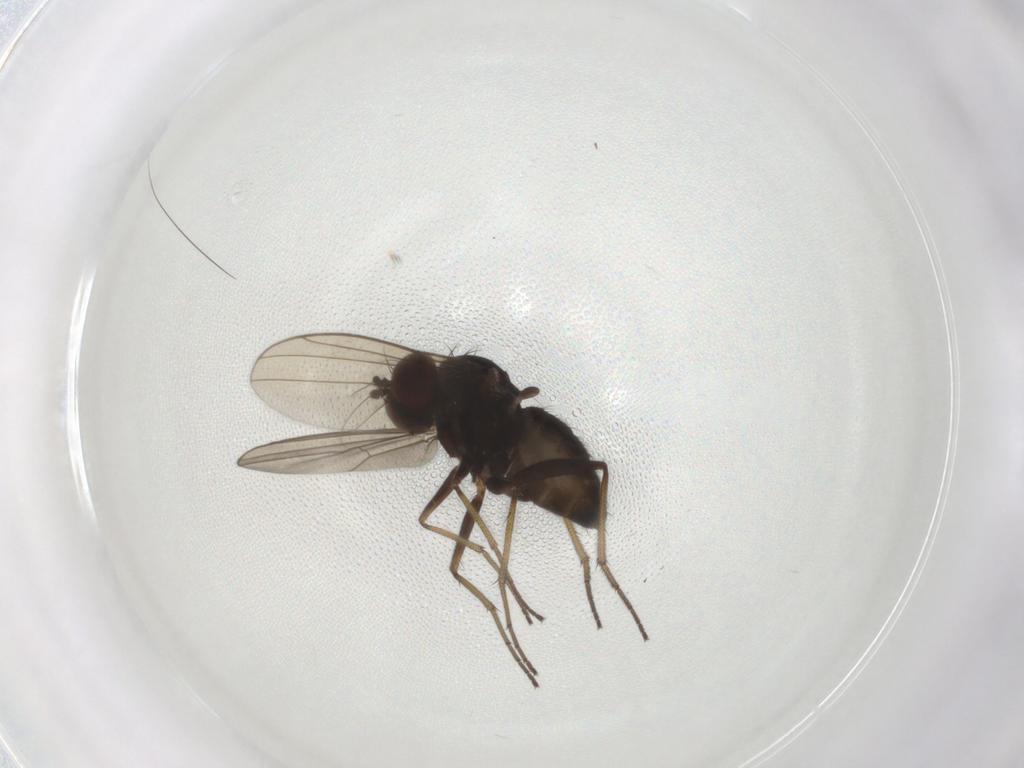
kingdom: Animalia
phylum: Arthropoda
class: Insecta
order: Diptera
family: Dolichopodidae
